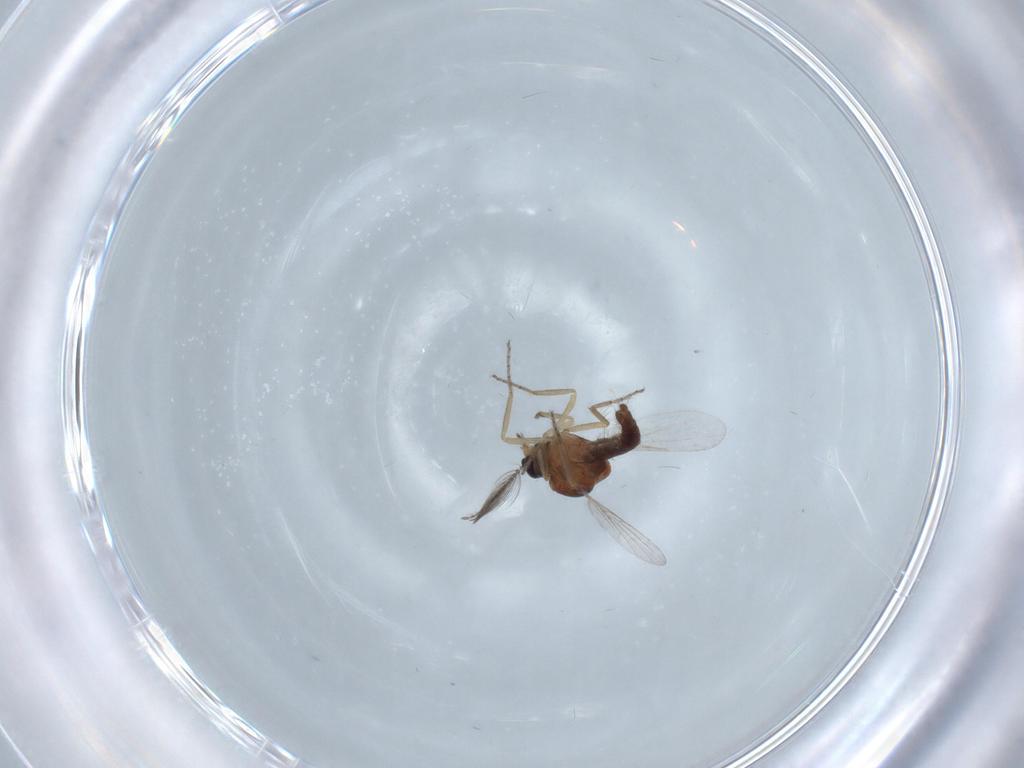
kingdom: Animalia
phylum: Arthropoda
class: Insecta
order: Diptera
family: Ceratopogonidae
